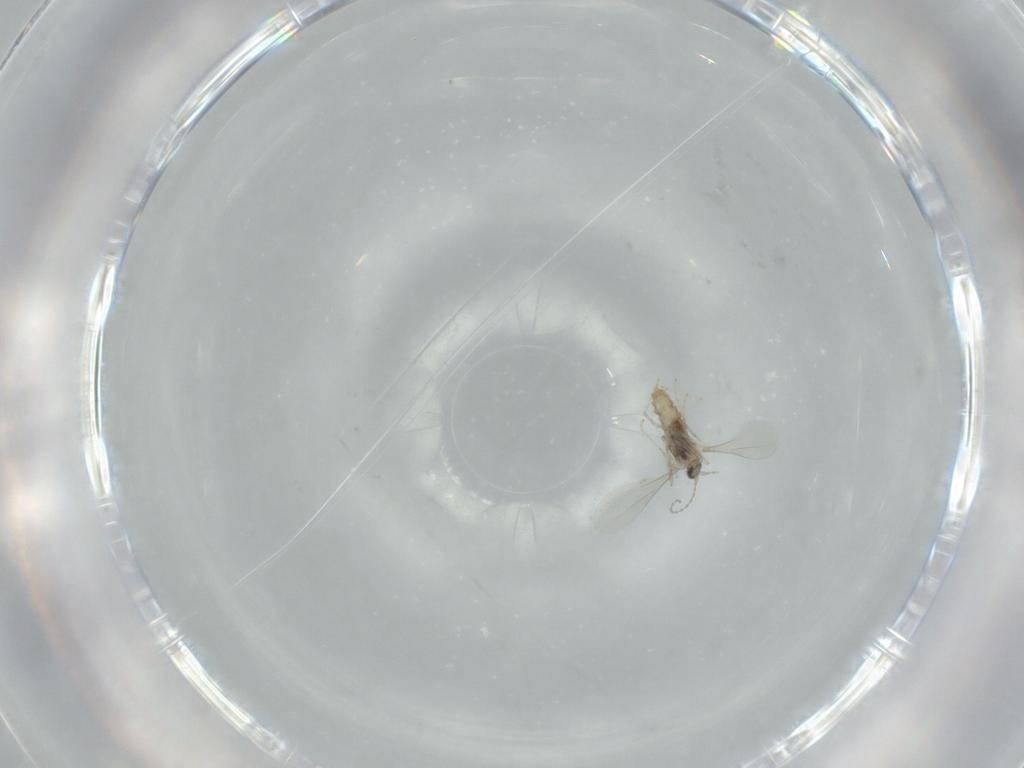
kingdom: Animalia
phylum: Arthropoda
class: Insecta
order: Diptera
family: Cecidomyiidae
